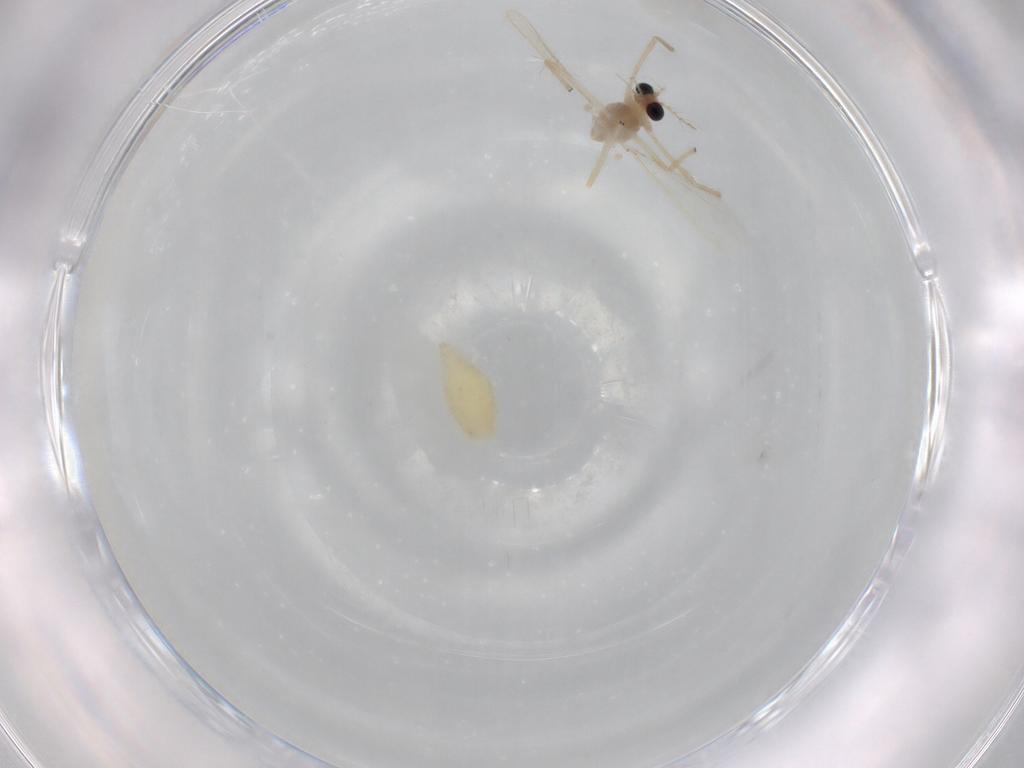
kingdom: Animalia
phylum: Arthropoda
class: Insecta
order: Diptera
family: Chironomidae
